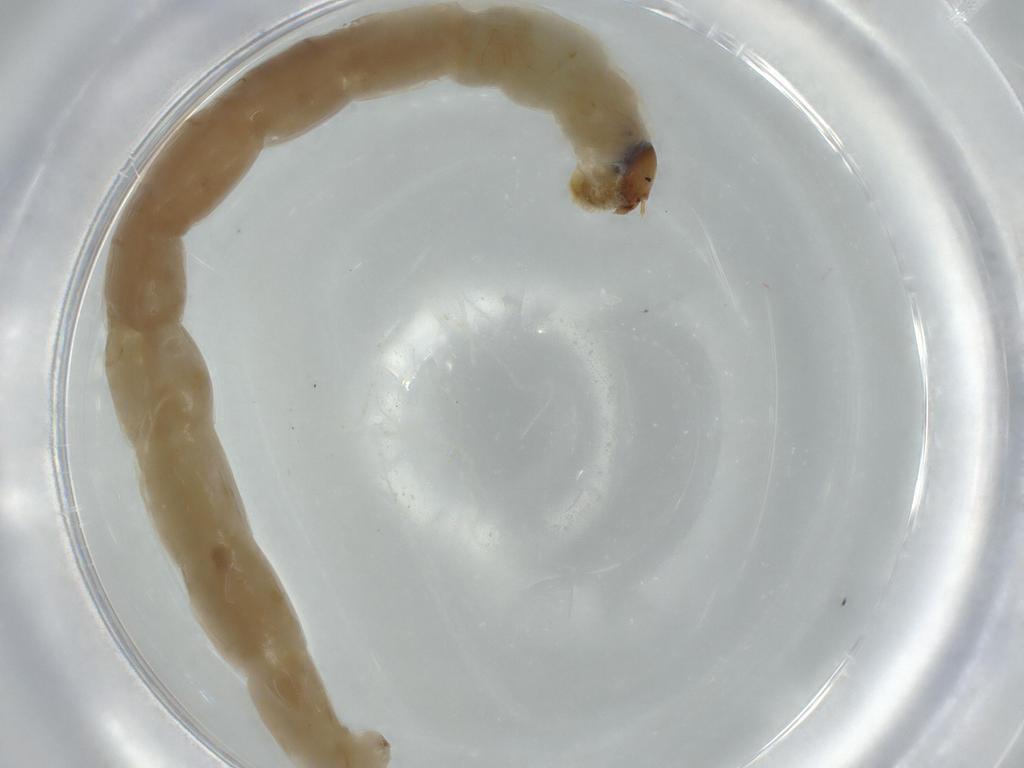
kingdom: Animalia
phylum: Arthropoda
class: Insecta
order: Diptera
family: Chironomidae
